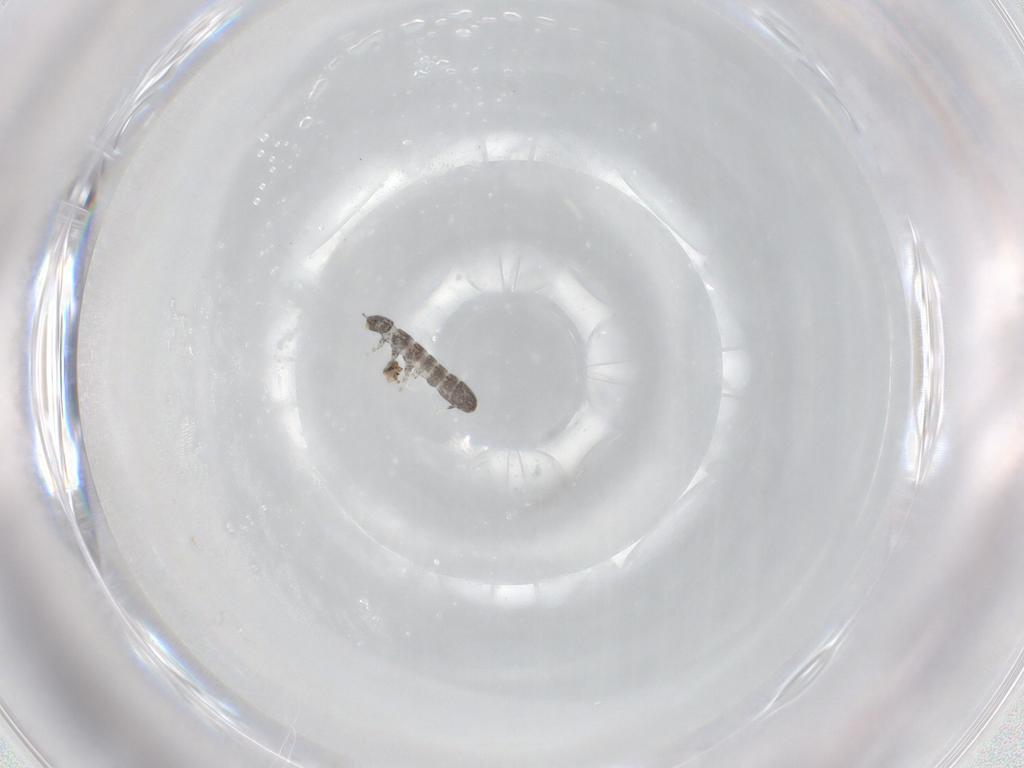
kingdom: Animalia
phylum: Arthropoda
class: Collembola
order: Entomobryomorpha
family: Isotomidae
